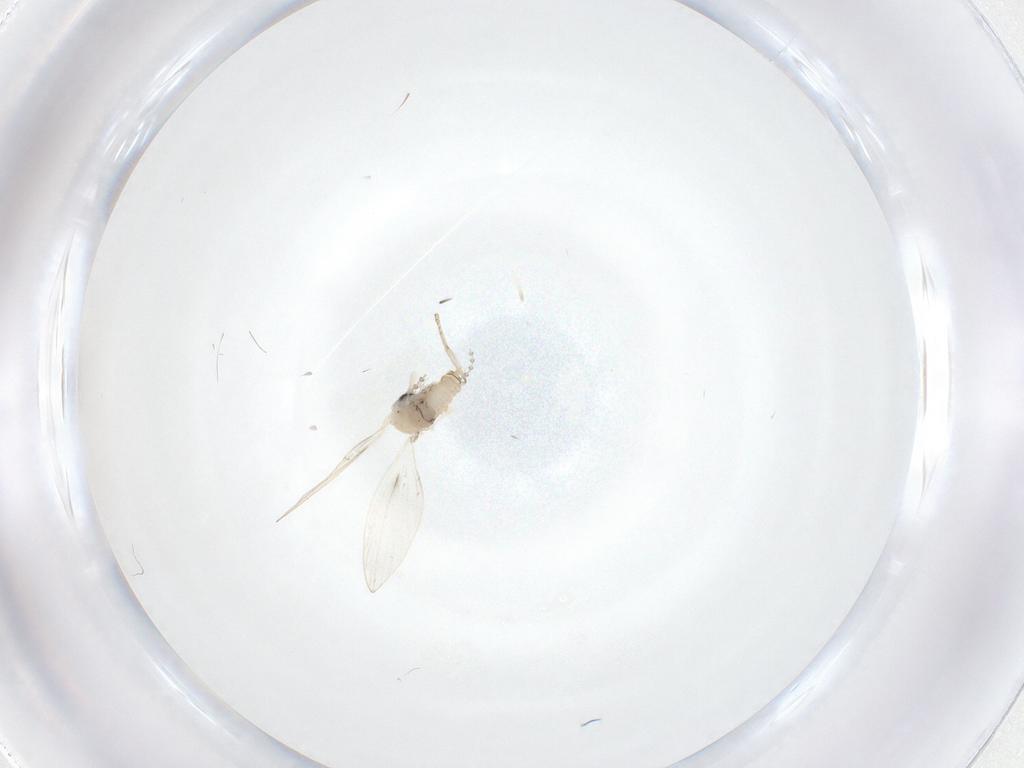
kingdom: Animalia
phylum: Arthropoda
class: Insecta
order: Diptera
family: Psychodidae
